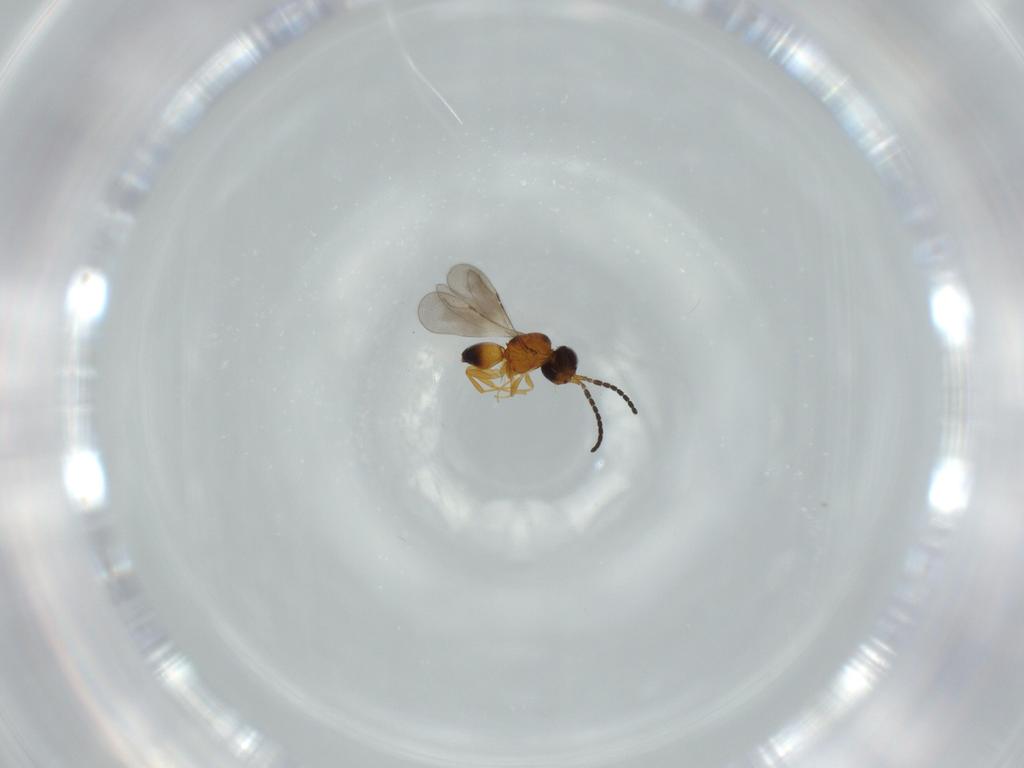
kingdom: Animalia
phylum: Arthropoda
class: Insecta
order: Hymenoptera
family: Ceraphronidae
